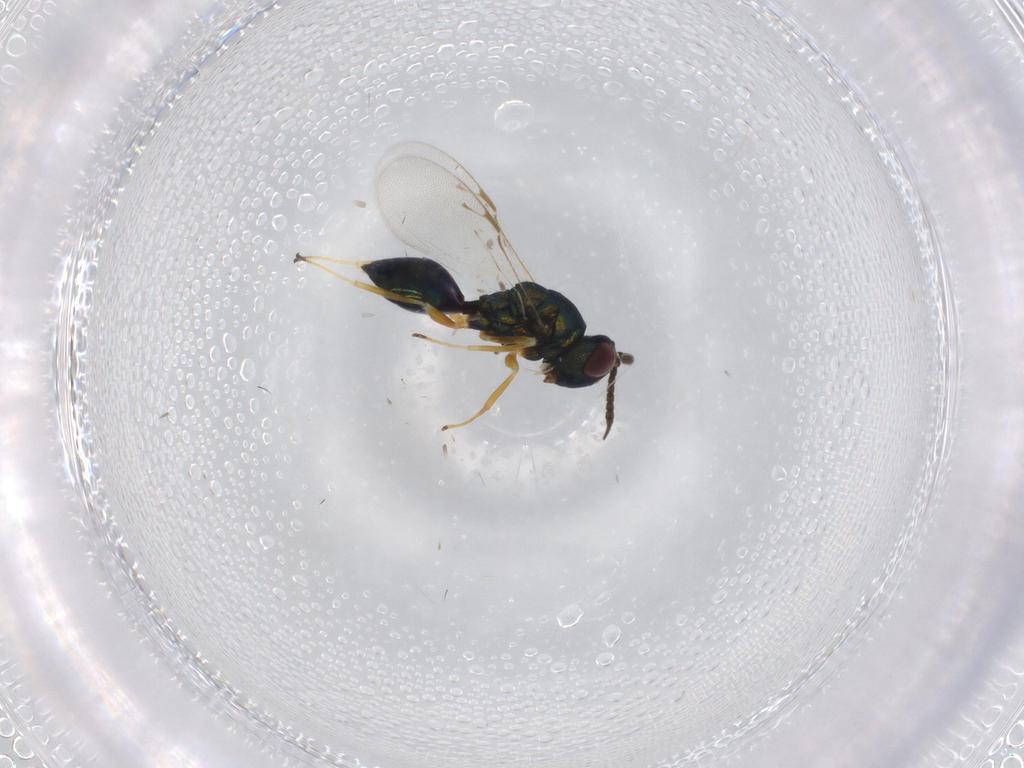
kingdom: Animalia
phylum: Arthropoda
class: Insecta
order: Hymenoptera
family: Pteromalidae
